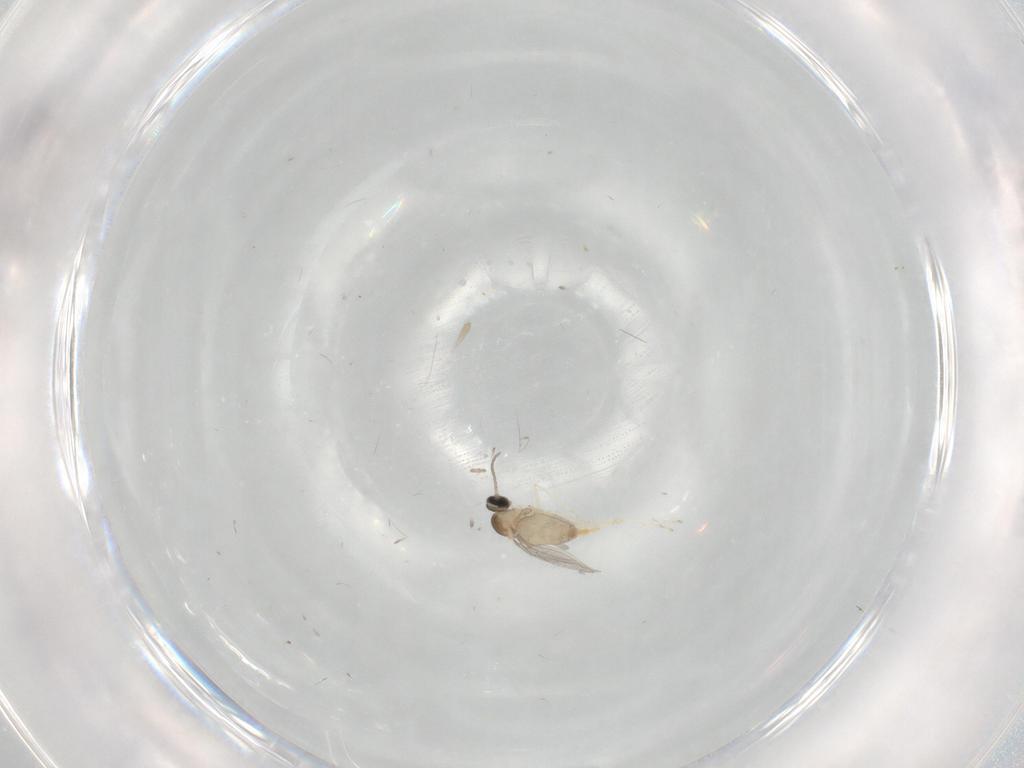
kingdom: Animalia
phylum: Arthropoda
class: Insecta
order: Diptera
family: Cecidomyiidae
